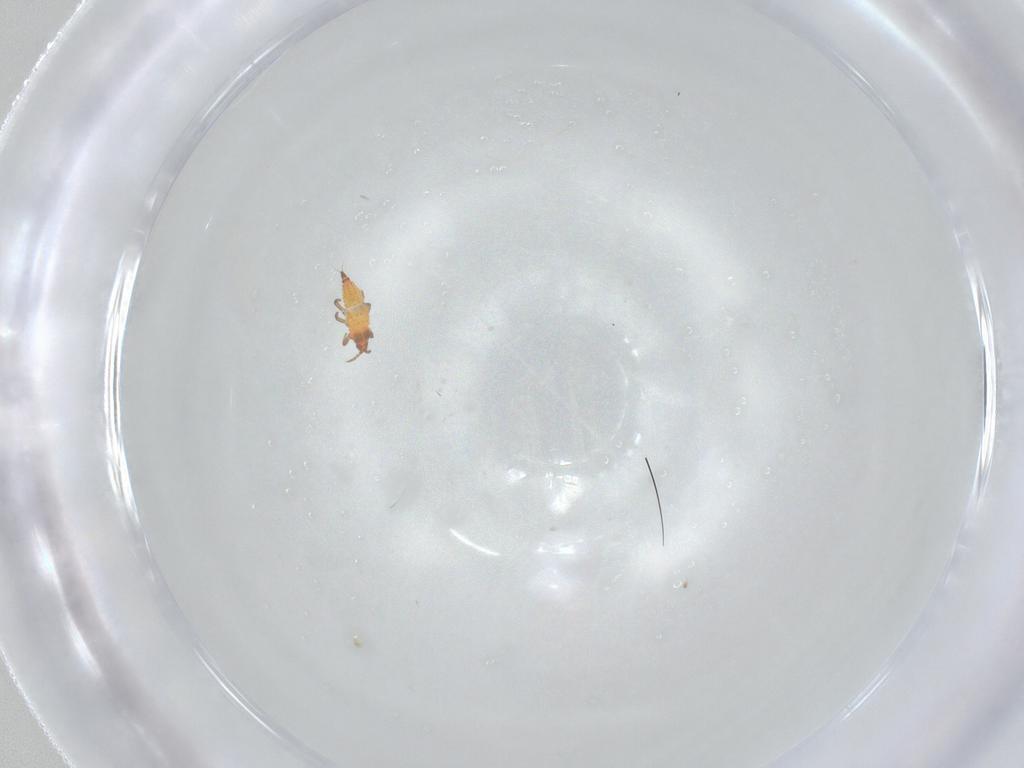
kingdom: Animalia
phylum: Arthropoda
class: Insecta
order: Thysanoptera
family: Phlaeothripidae
